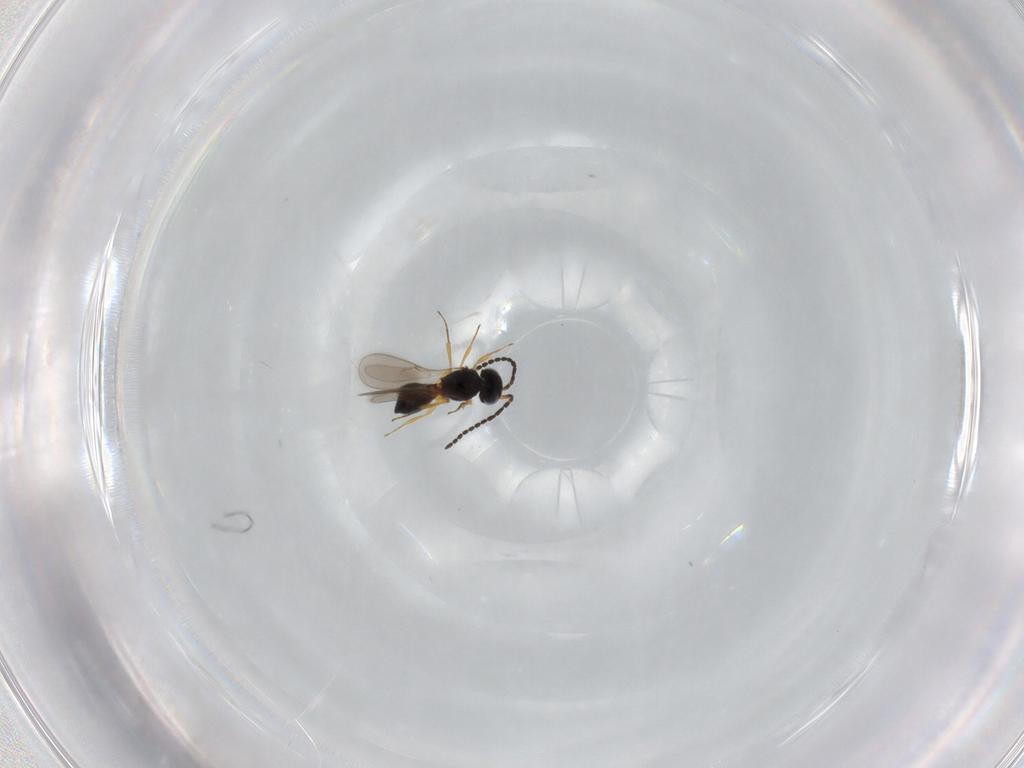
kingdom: Animalia
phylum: Arthropoda
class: Insecta
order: Hymenoptera
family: Scelionidae
